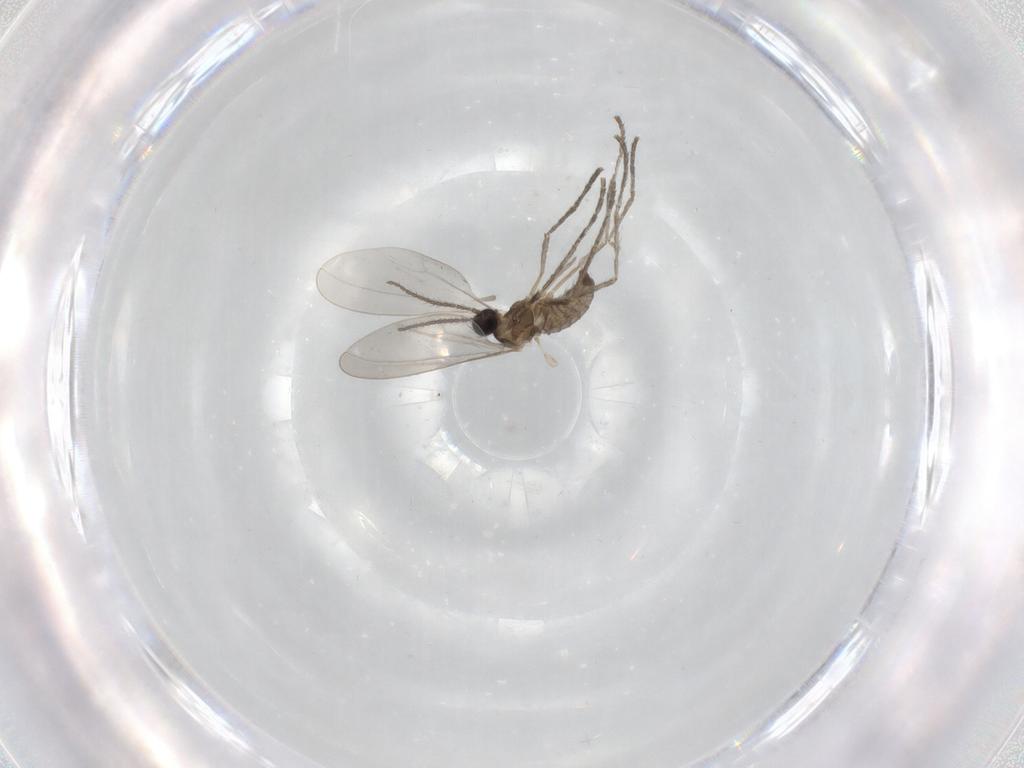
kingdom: Animalia
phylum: Arthropoda
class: Insecta
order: Diptera
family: Cecidomyiidae
